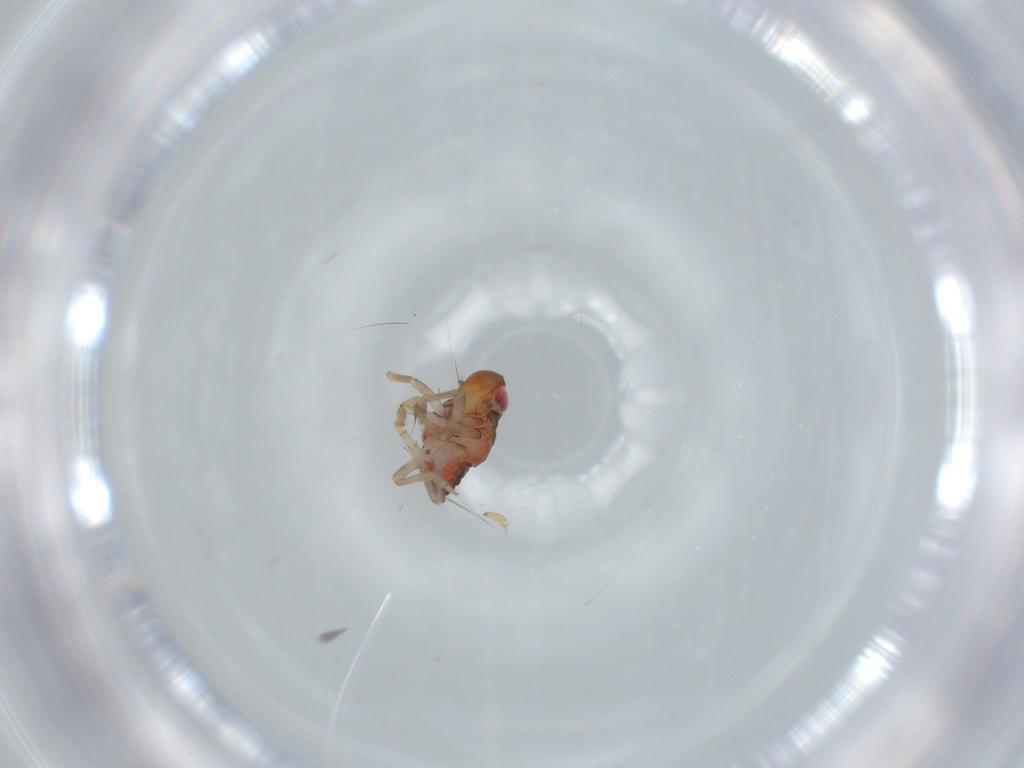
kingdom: Animalia
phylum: Arthropoda
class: Insecta
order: Hemiptera
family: Issidae
